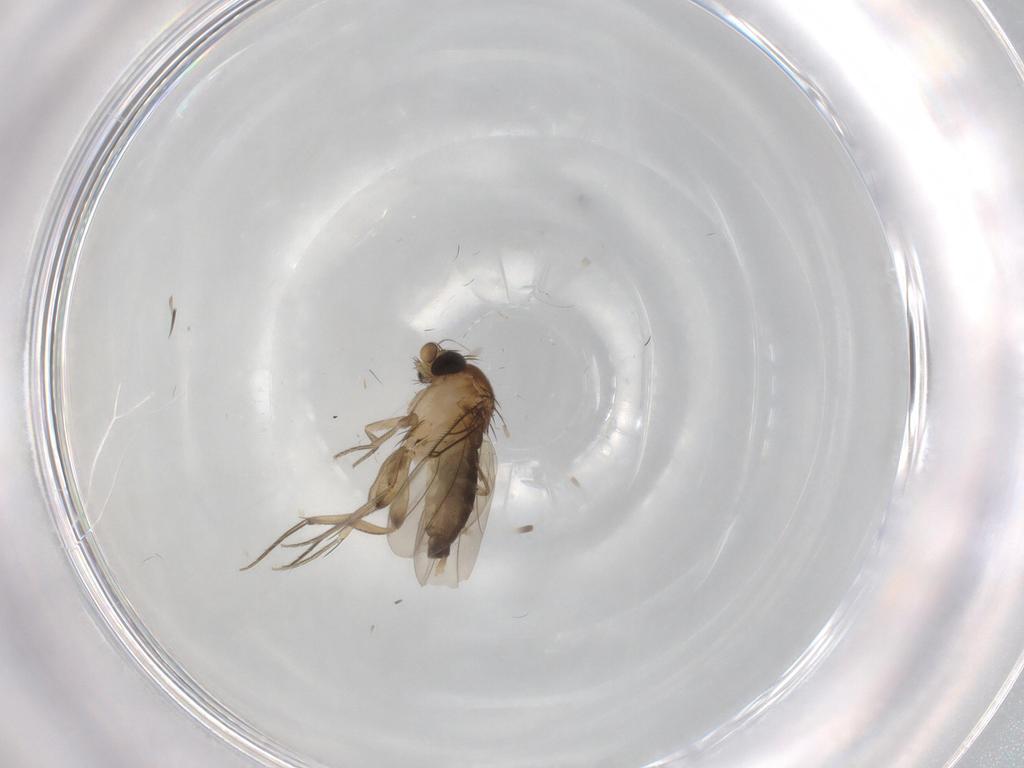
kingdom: Animalia
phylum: Arthropoda
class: Insecta
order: Diptera
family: Phoridae
